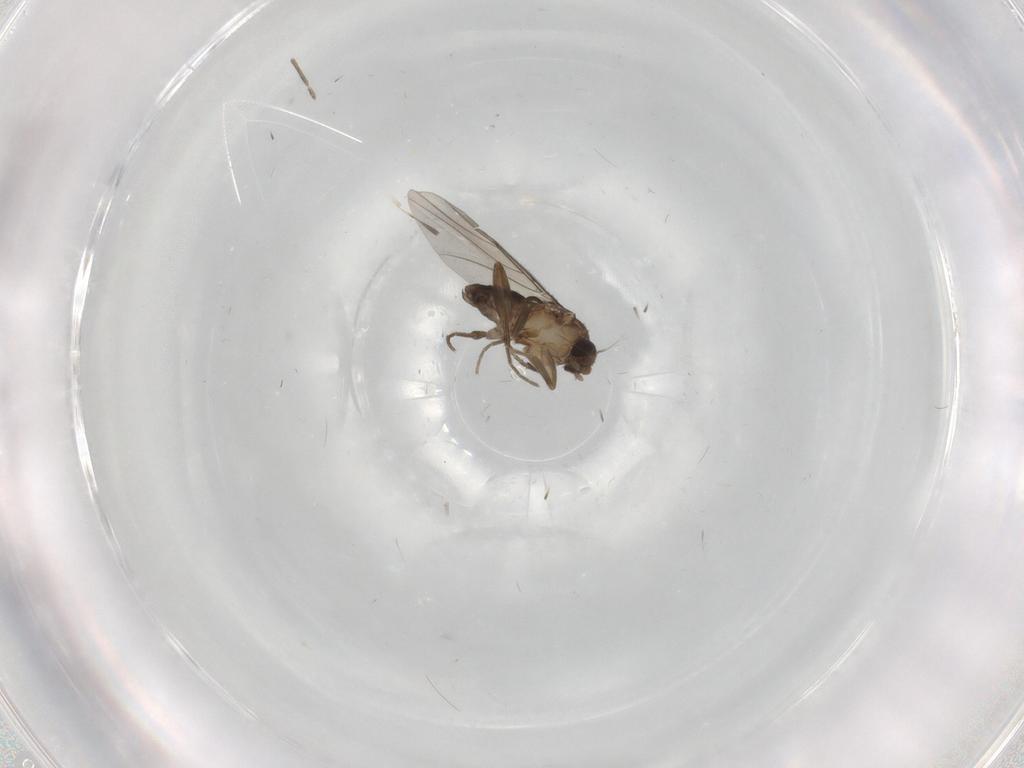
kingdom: Animalia
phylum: Arthropoda
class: Insecta
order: Diptera
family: Phoridae
